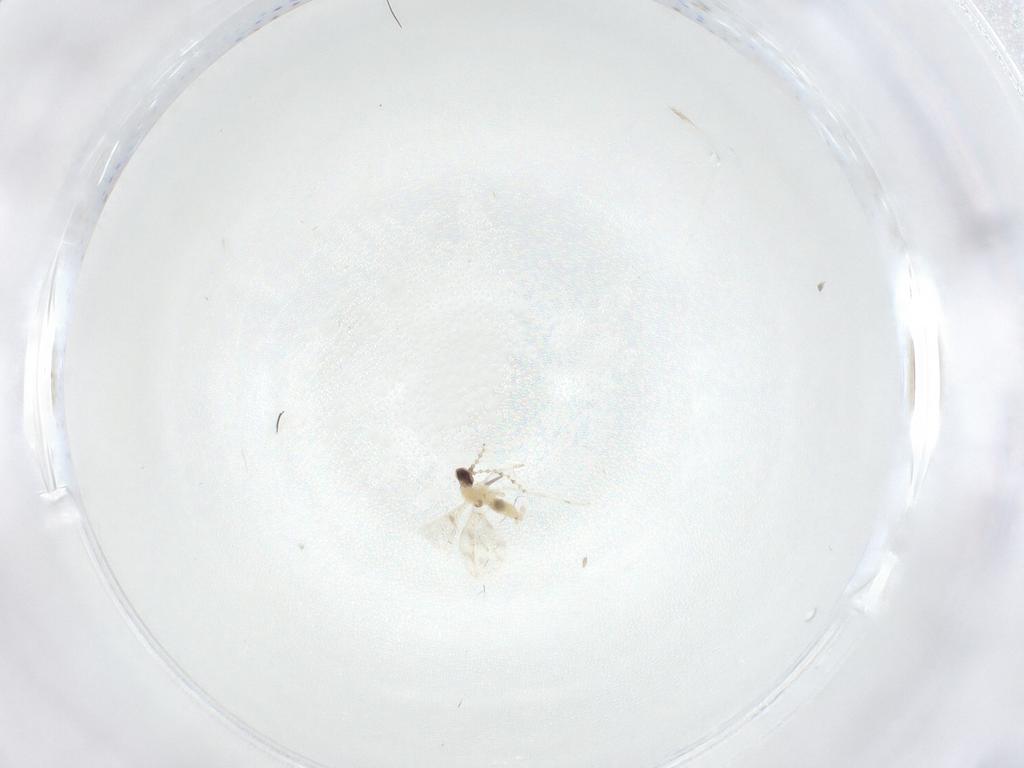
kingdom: Animalia
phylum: Arthropoda
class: Insecta
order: Diptera
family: Cecidomyiidae
